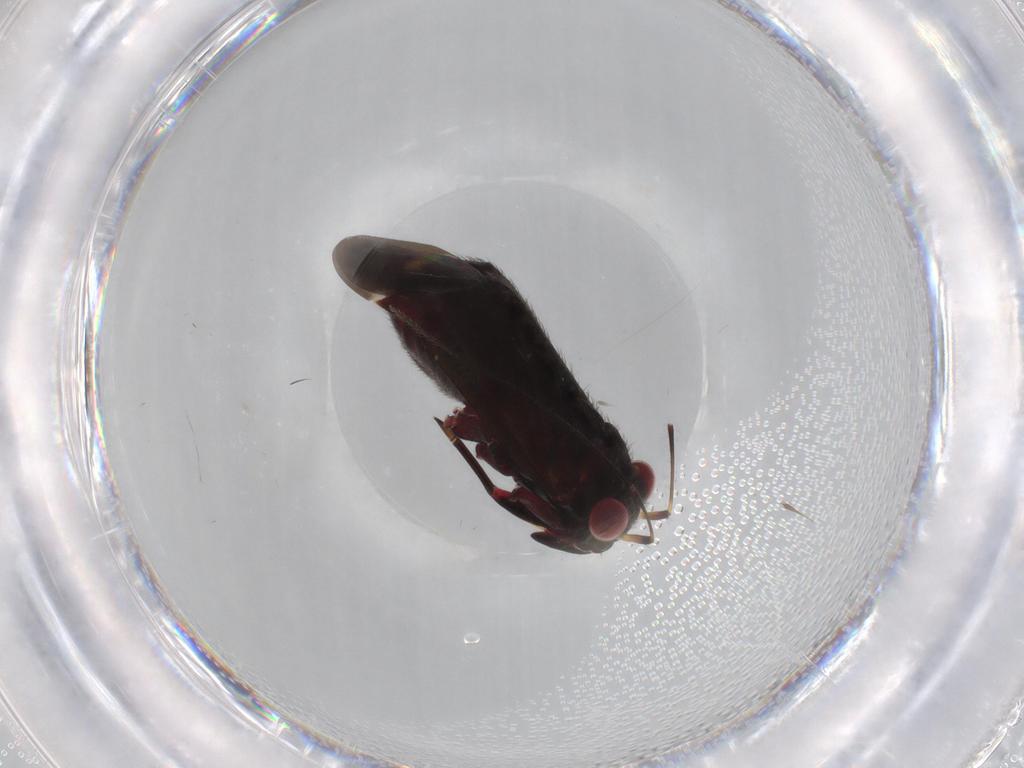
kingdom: Animalia
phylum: Arthropoda
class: Insecta
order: Hemiptera
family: Miridae
